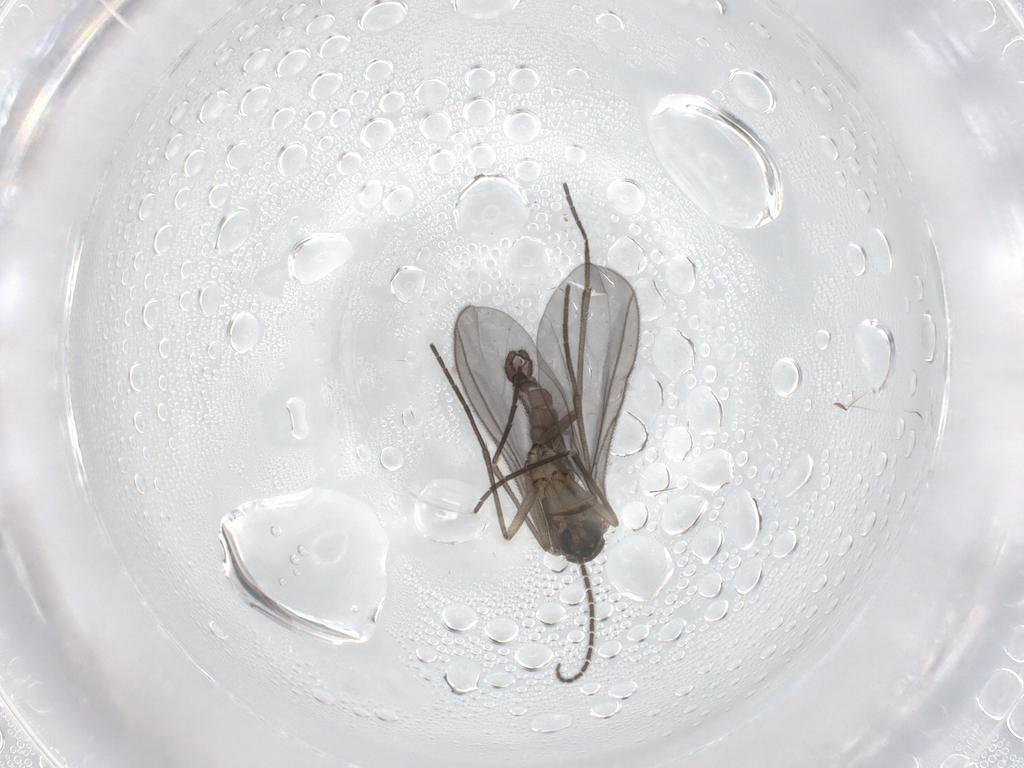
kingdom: Animalia
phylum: Arthropoda
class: Insecta
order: Diptera
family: Sciaridae
